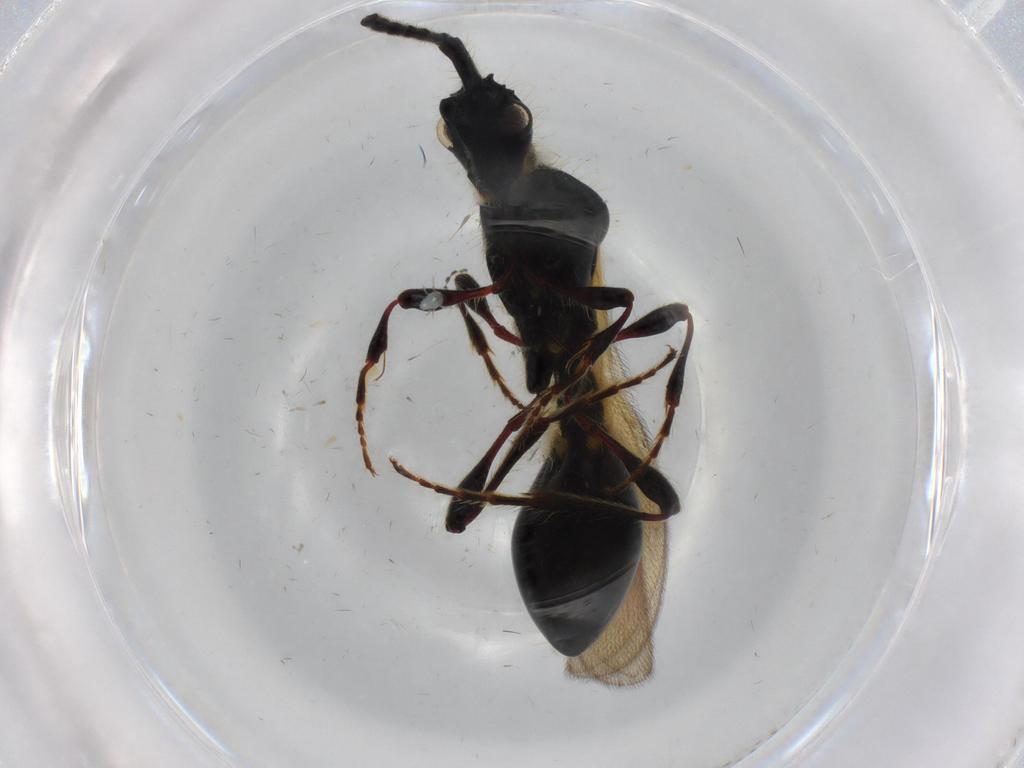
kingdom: Animalia
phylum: Arthropoda
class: Insecta
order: Hymenoptera
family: Diapriidae
